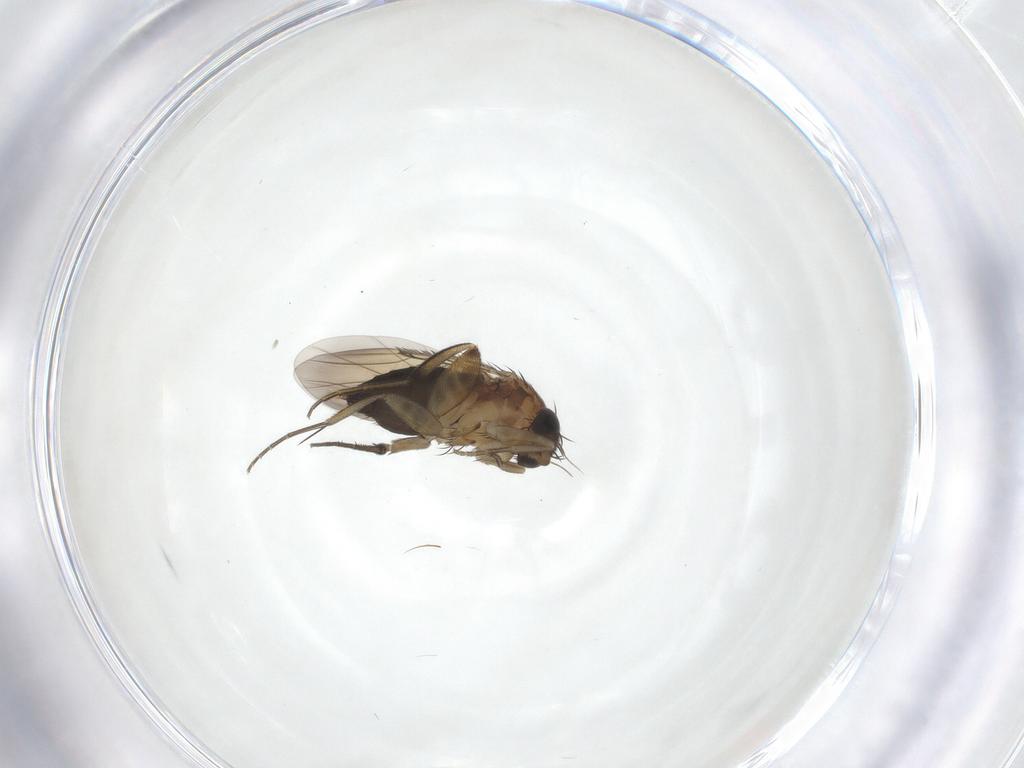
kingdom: Animalia
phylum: Arthropoda
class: Insecta
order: Diptera
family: Phoridae
